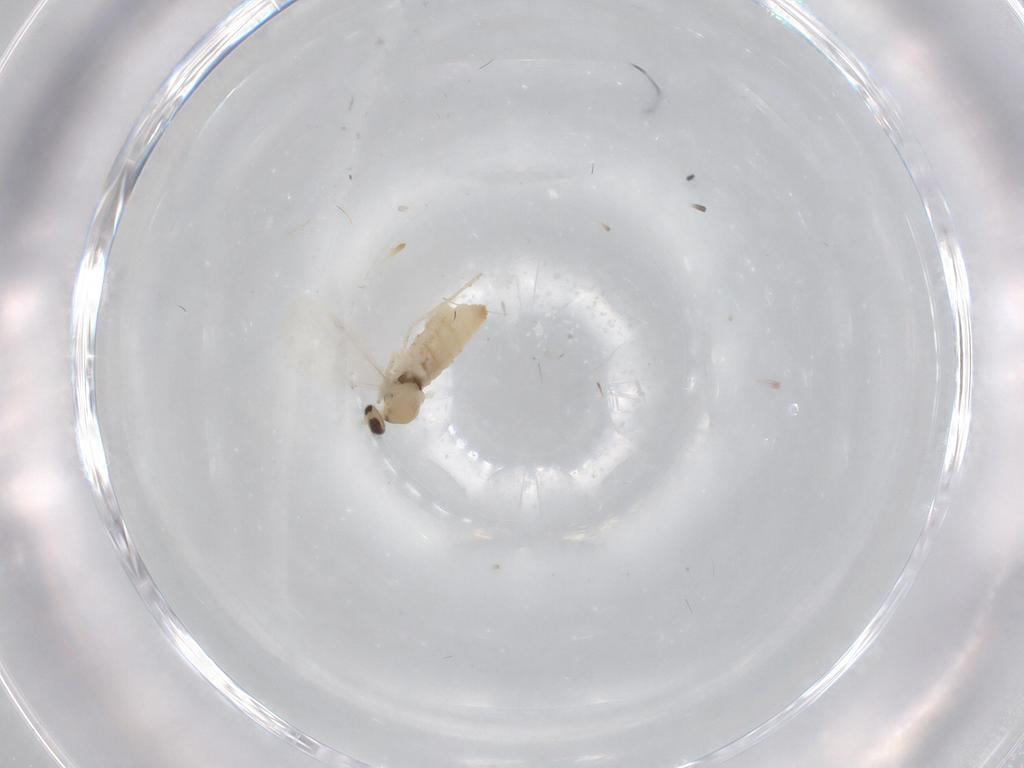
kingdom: Animalia
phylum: Arthropoda
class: Insecta
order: Diptera
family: Cecidomyiidae
